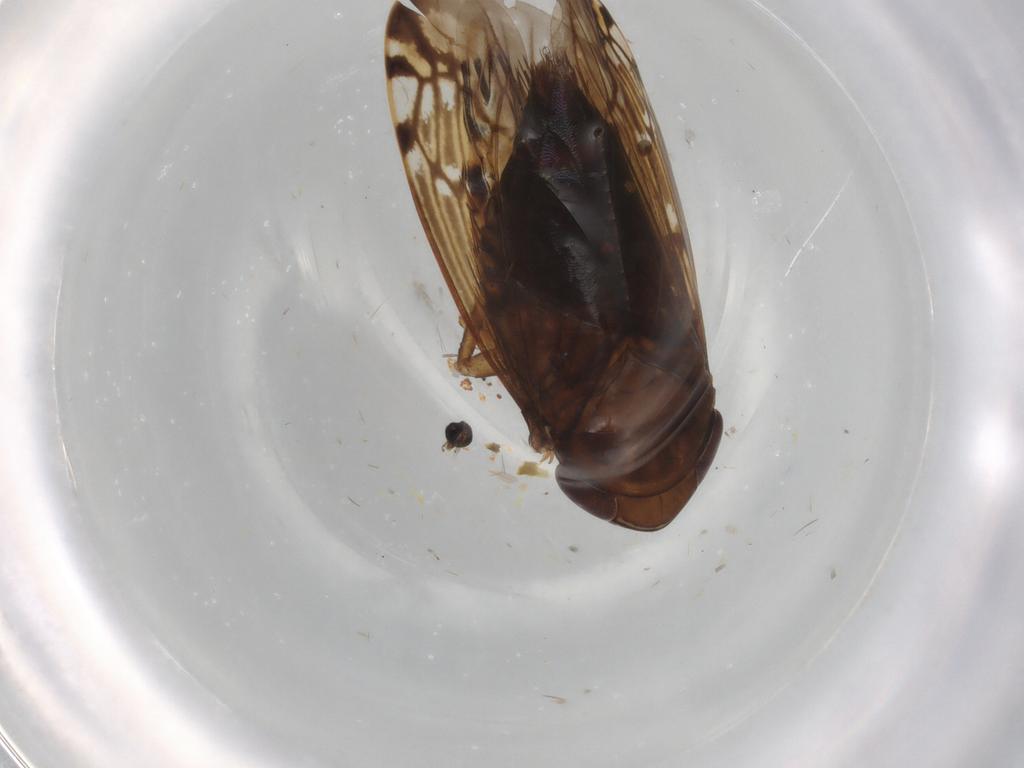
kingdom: Animalia
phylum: Arthropoda
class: Insecta
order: Hemiptera
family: Cicadellidae
